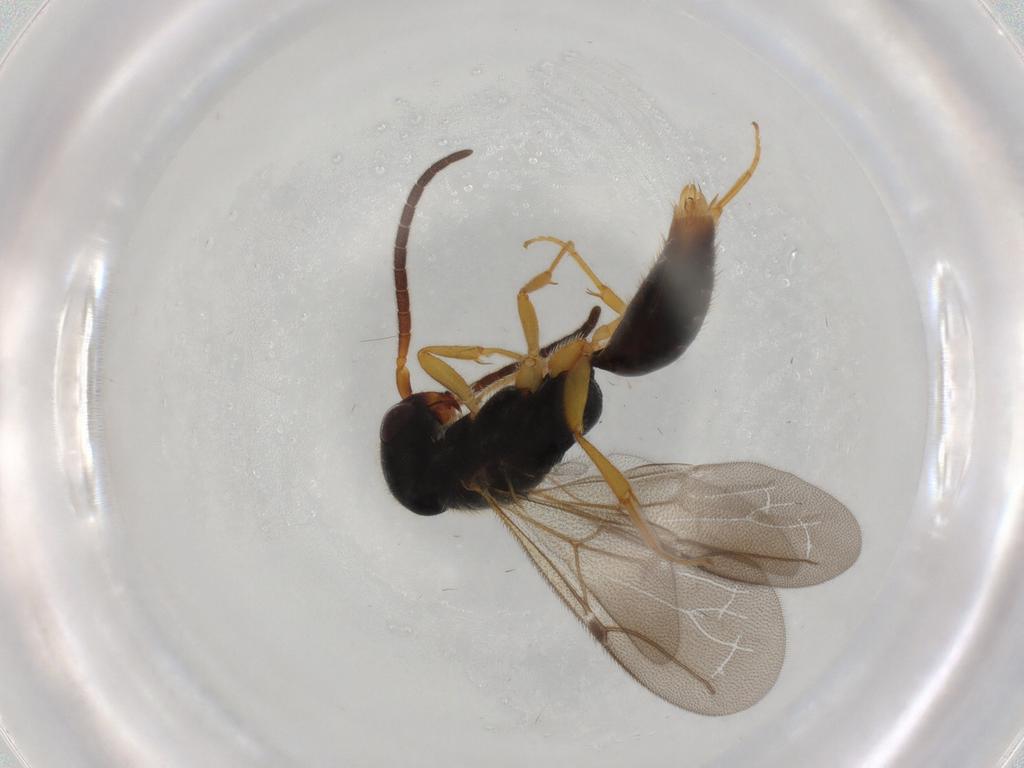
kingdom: Animalia
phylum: Arthropoda
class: Insecta
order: Hymenoptera
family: Bethylidae
